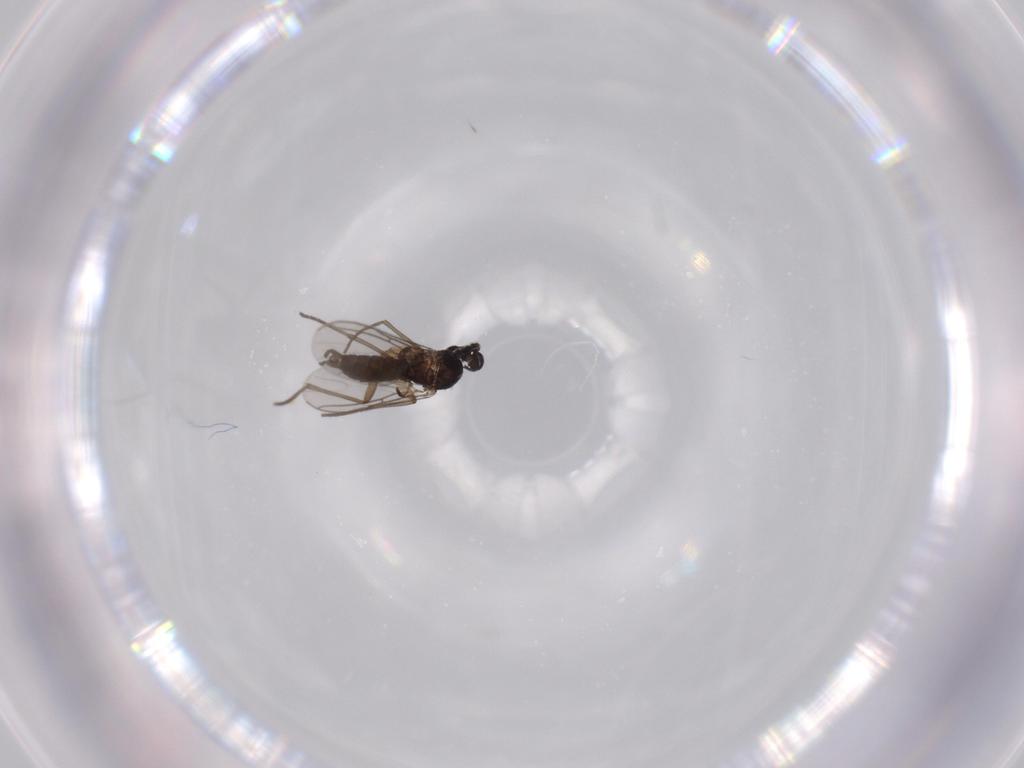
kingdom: Animalia
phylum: Arthropoda
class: Insecta
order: Diptera
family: Sciaridae
